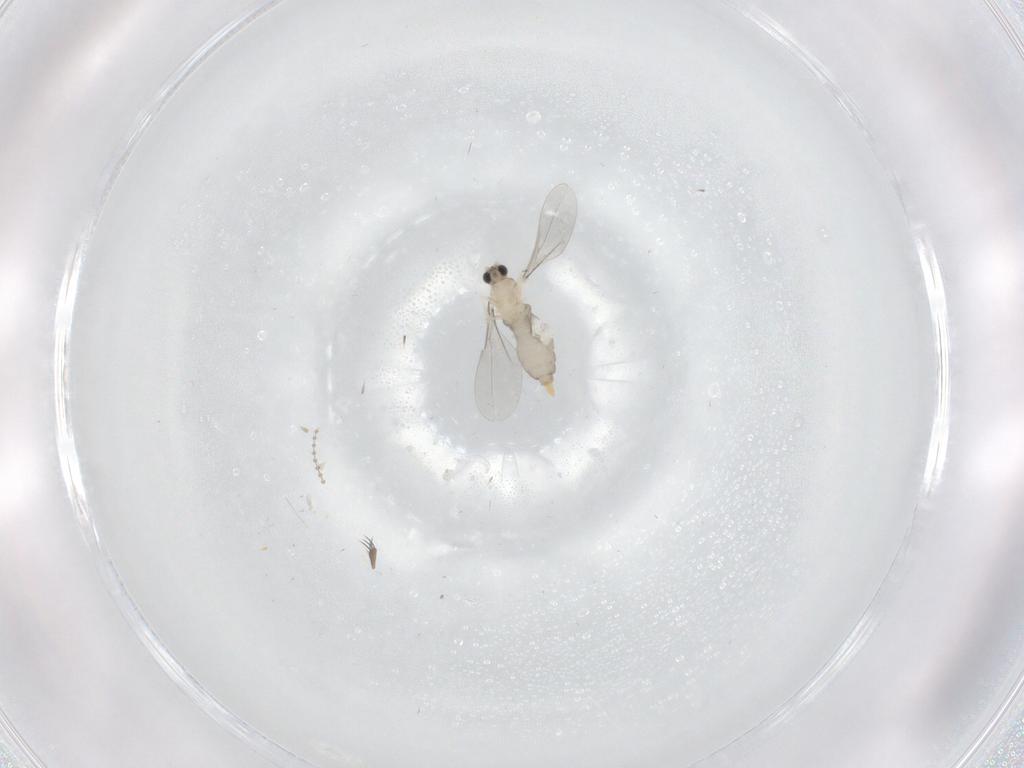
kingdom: Animalia
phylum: Arthropoda
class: Insecta
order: Diptera
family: Cecidomyiidae
